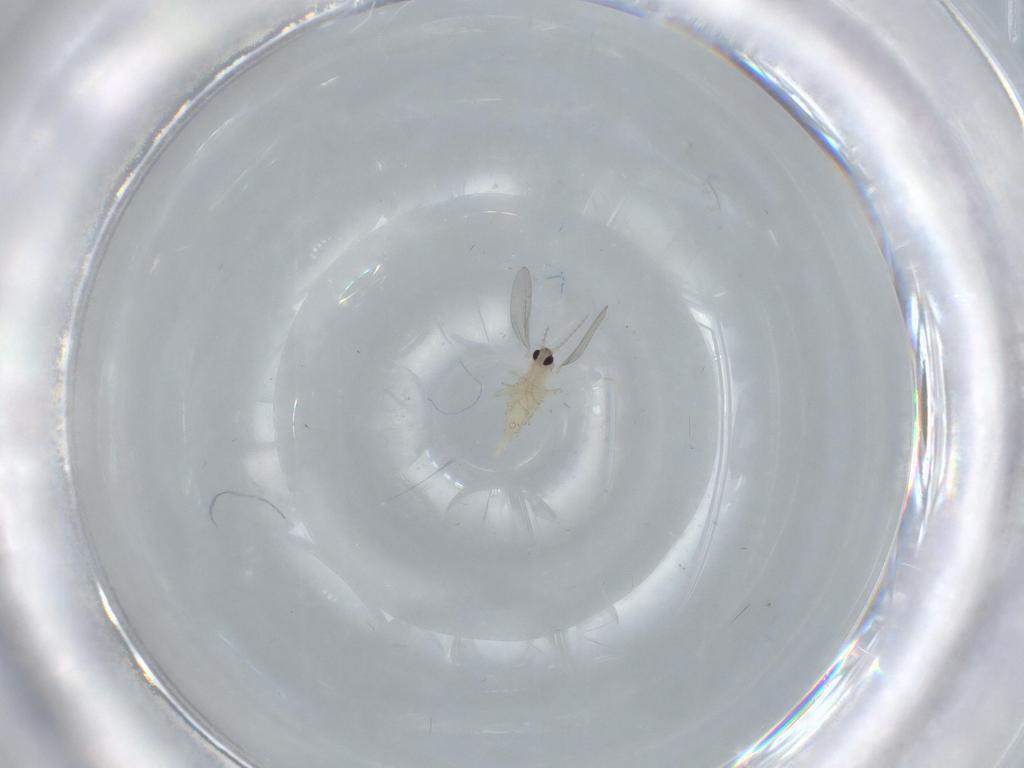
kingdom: Animalia
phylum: Arthropoda
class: Insecta
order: Diptera
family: Cecidomyiidae
